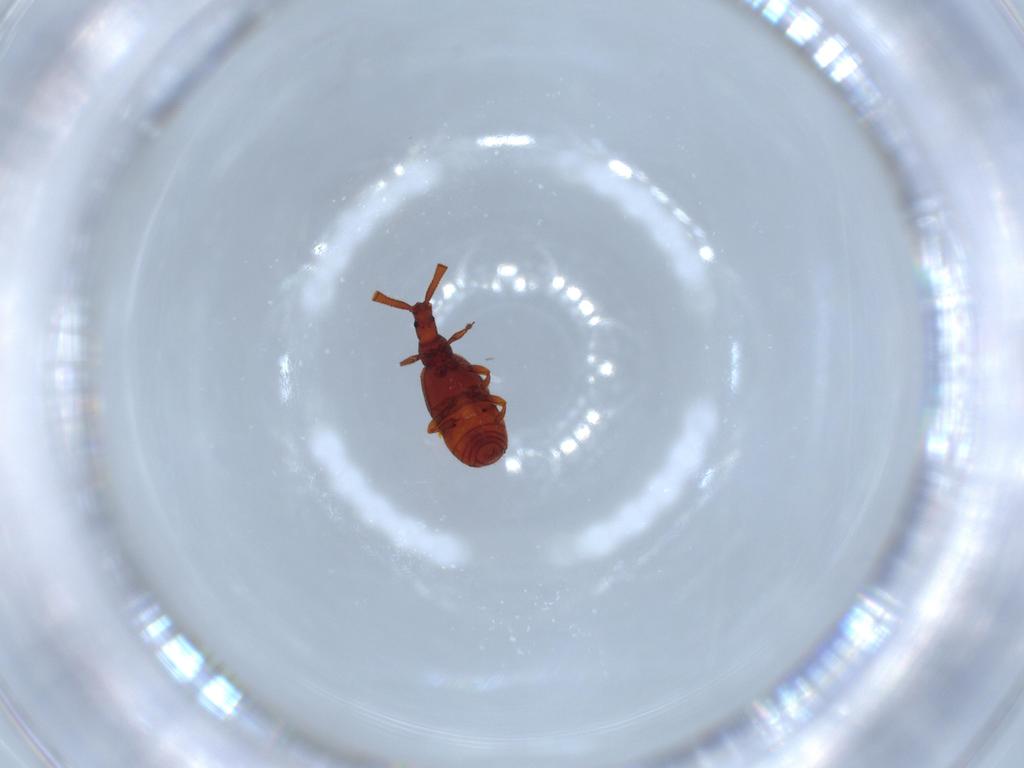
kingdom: Animalia
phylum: Arthropoda
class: Insecta
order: Coleoptera
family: Staphylinidae
